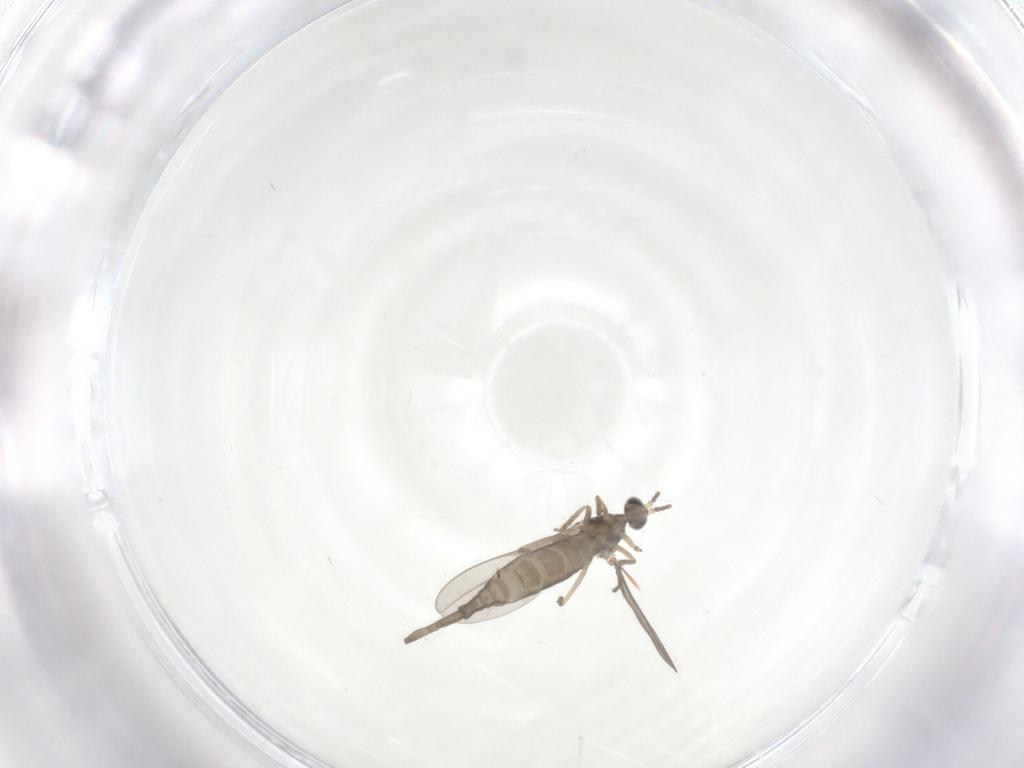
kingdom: Animalia
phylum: Arthropoda
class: Insecta
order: Diptera
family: Cecidomyiidae
